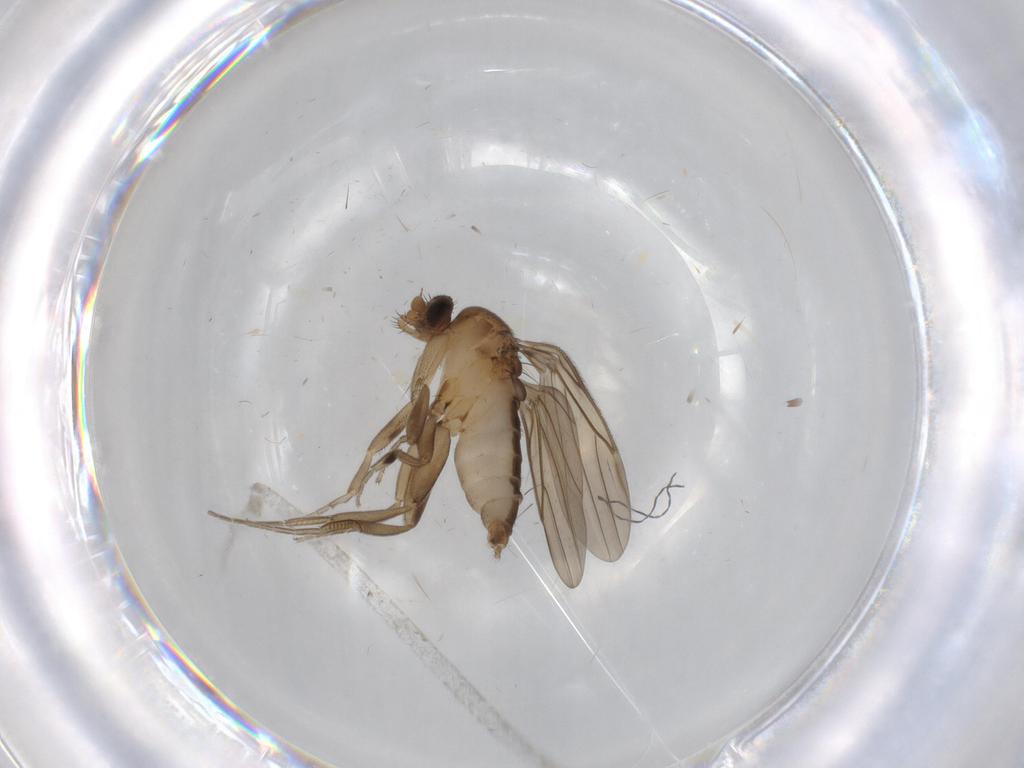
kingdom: Animalia
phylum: Arthropoda
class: Insecta
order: Diptera
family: Phoridae
